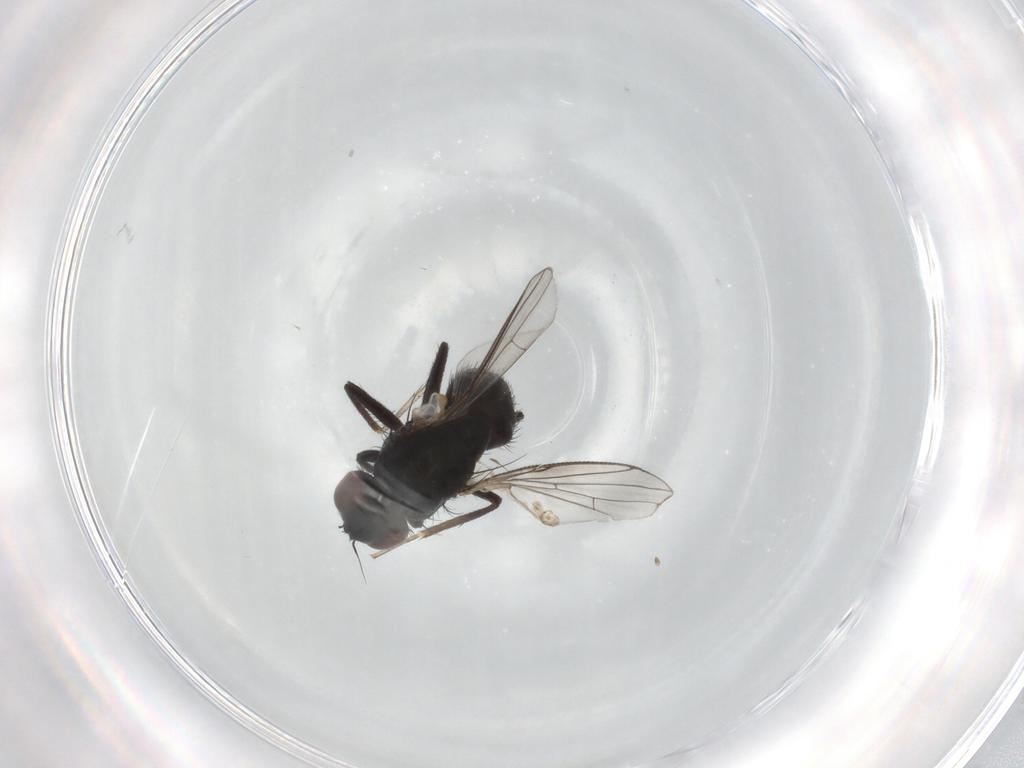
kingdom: Animalia
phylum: Arthropoda
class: Insecta
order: Diptera
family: Muscidae
